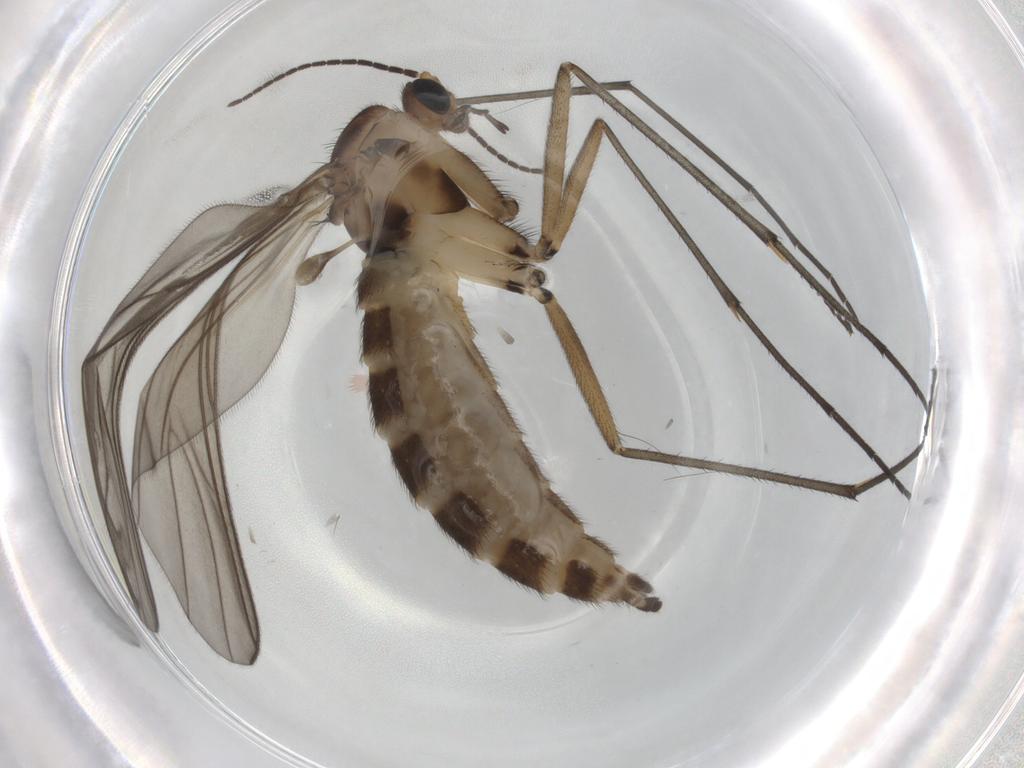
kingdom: Animalia
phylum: Arthropoda
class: Insecta
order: Diptera
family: Sciaridae
